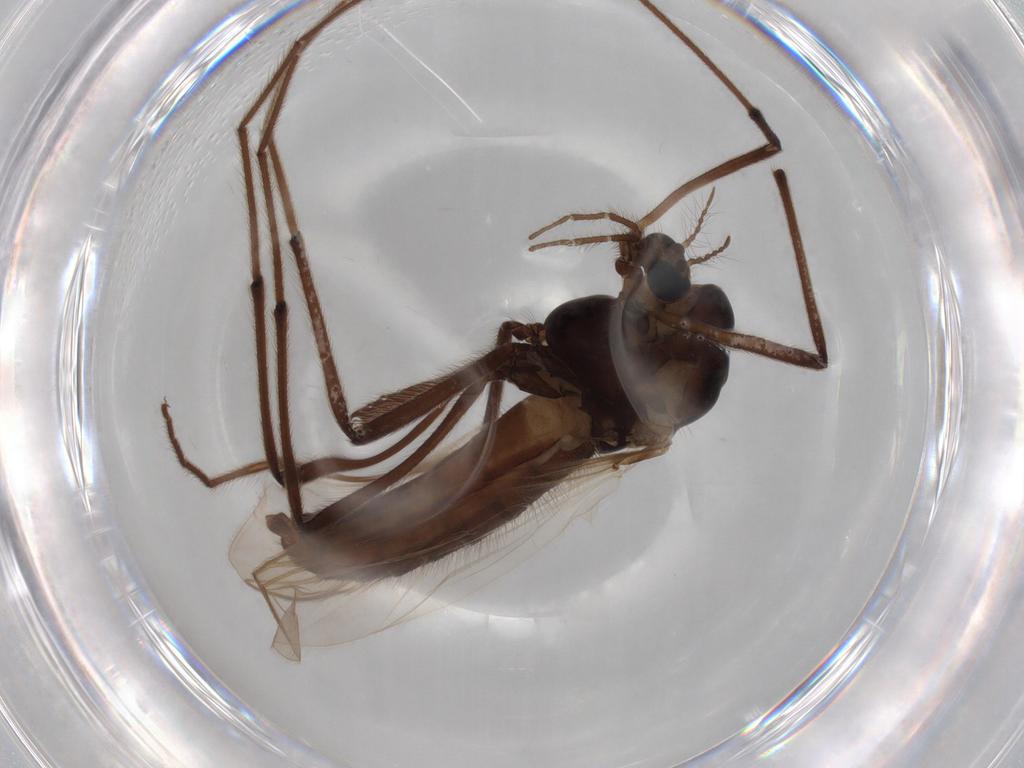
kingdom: Animalia
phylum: Arthropoda
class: Insecta
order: Diptera
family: Chironomidae
